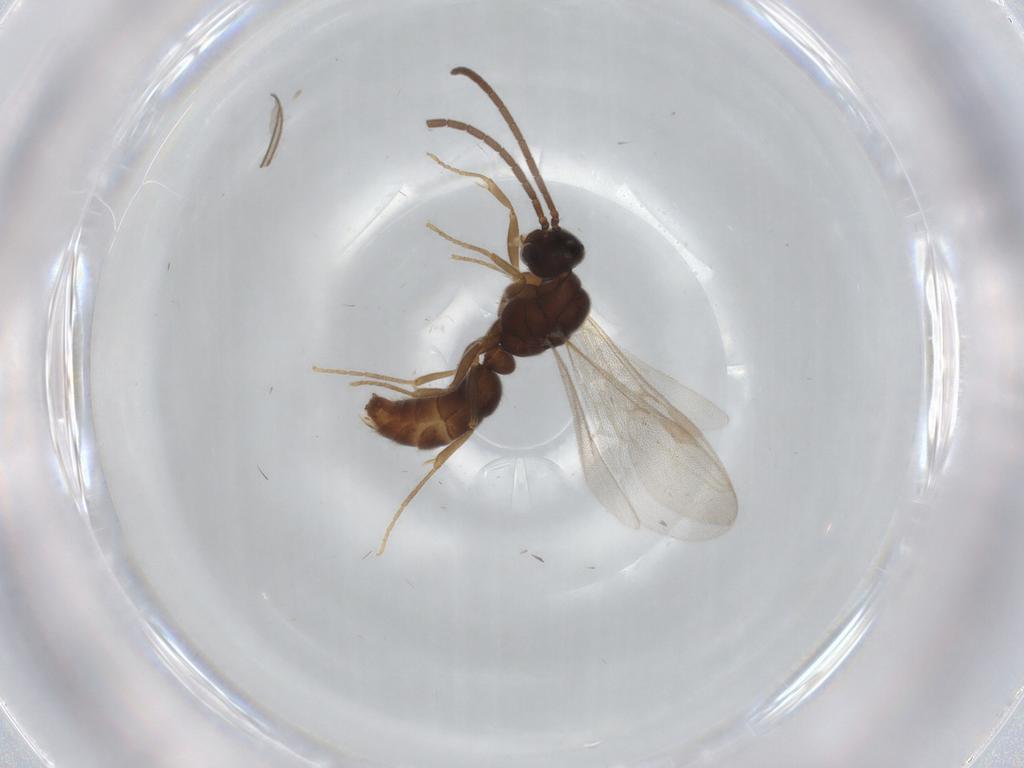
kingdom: Animalia
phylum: Arthropoda
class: Insecta
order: Hymenoptera
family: Formicidae
